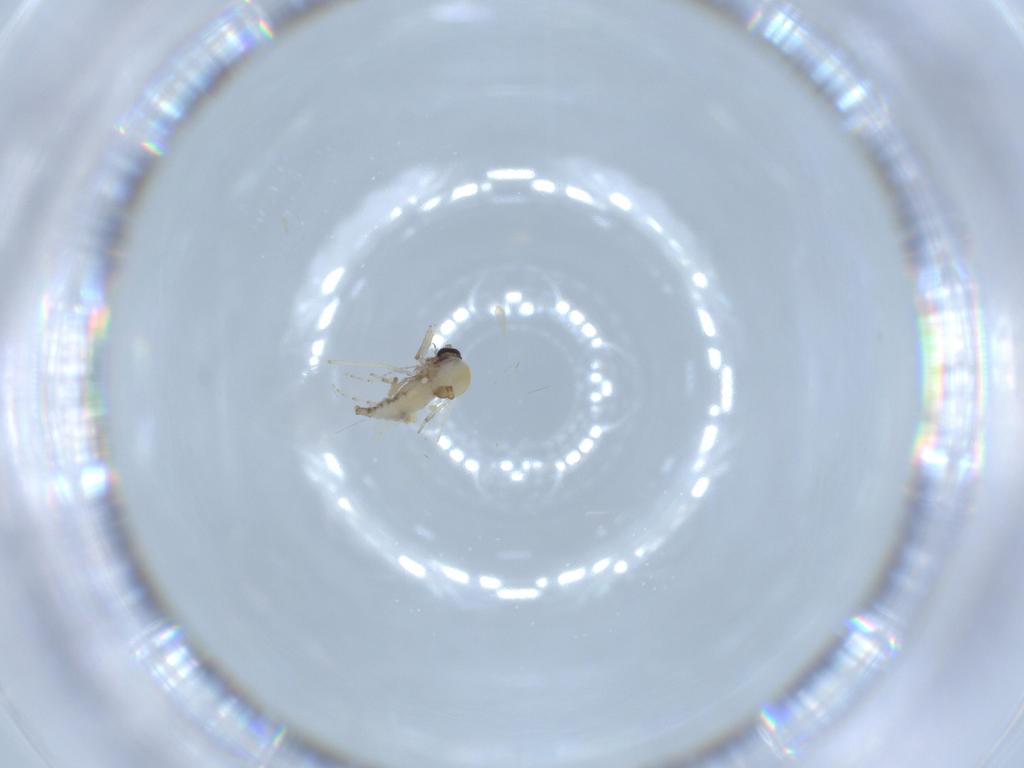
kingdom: Animalia
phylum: Arthropoda
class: Insecta
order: Diptera
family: Ceratopogonidae
